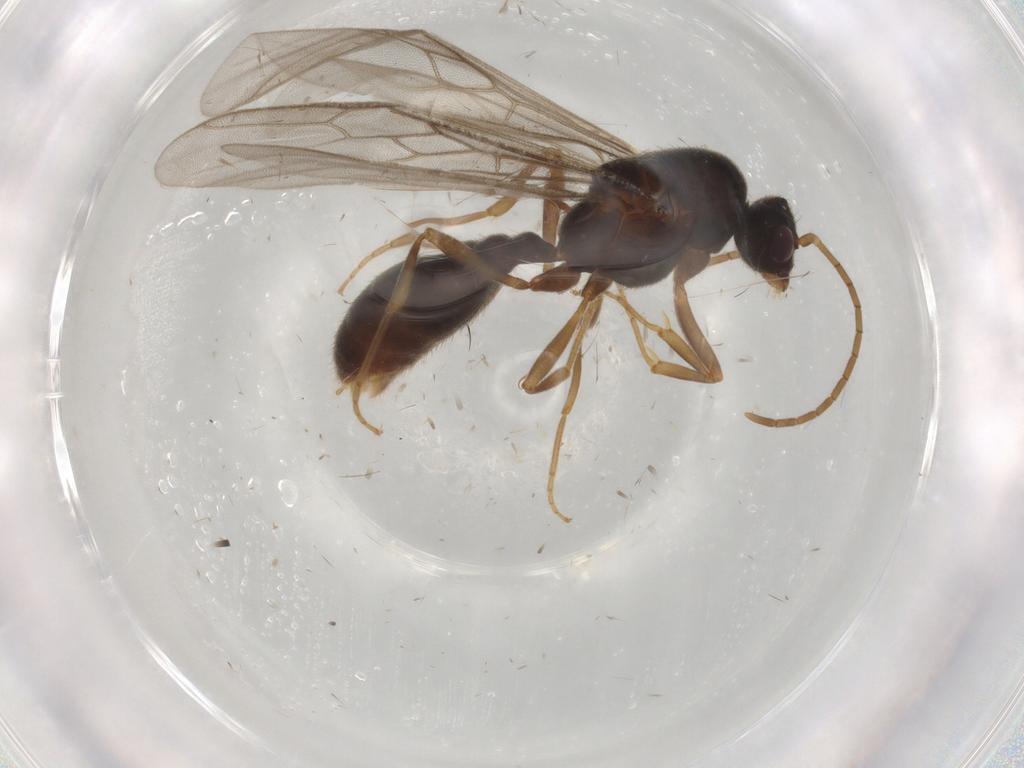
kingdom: Animalia
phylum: Arthropoda
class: Insecta
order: Hymenoptera
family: Formicidae
